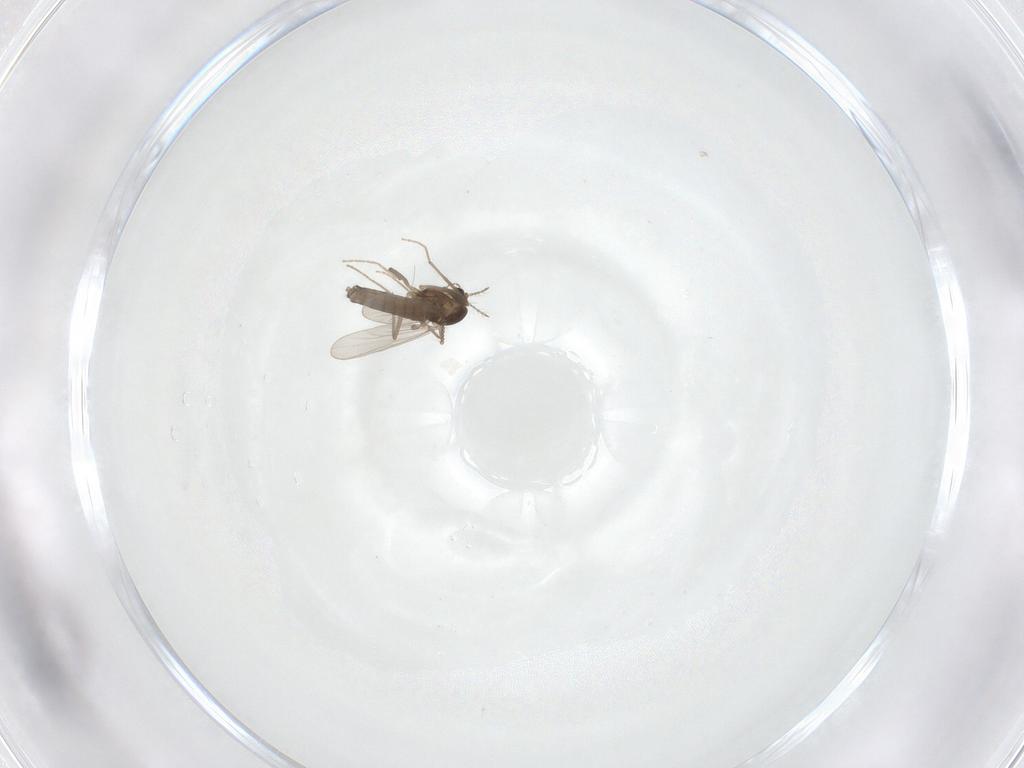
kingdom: Animalia
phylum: Arthropoda
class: Insecta
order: Diptera
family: Chironomidae
